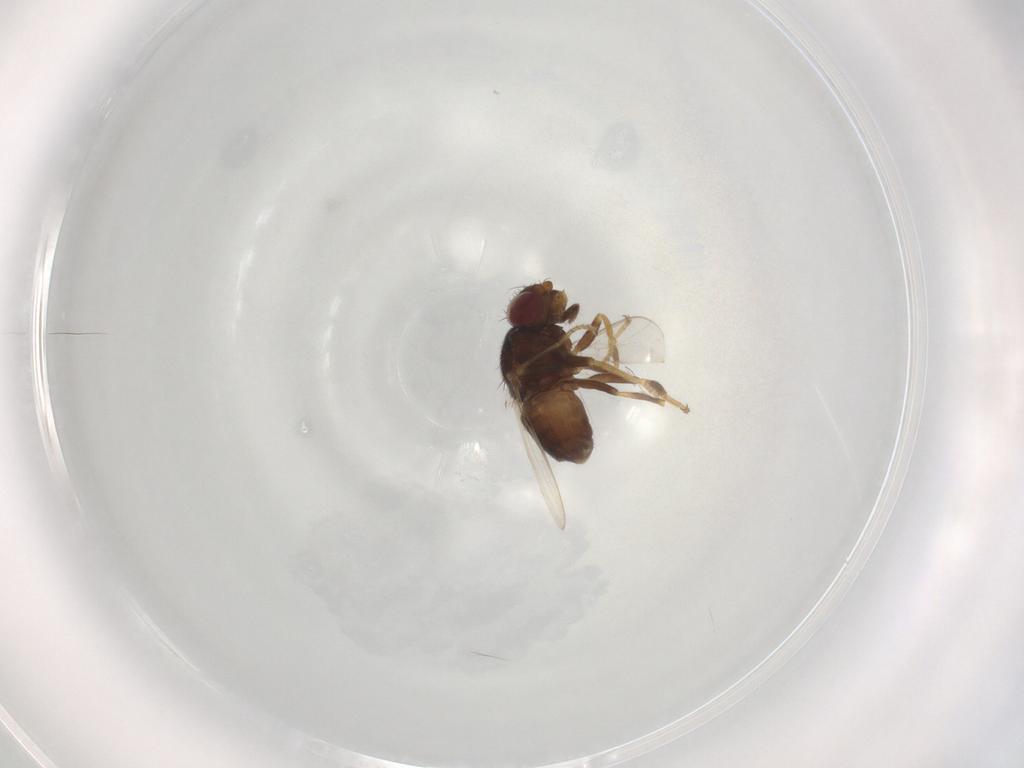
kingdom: Animalia
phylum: Arthropoda
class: Insecta
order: Diptera
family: Chloropidae
